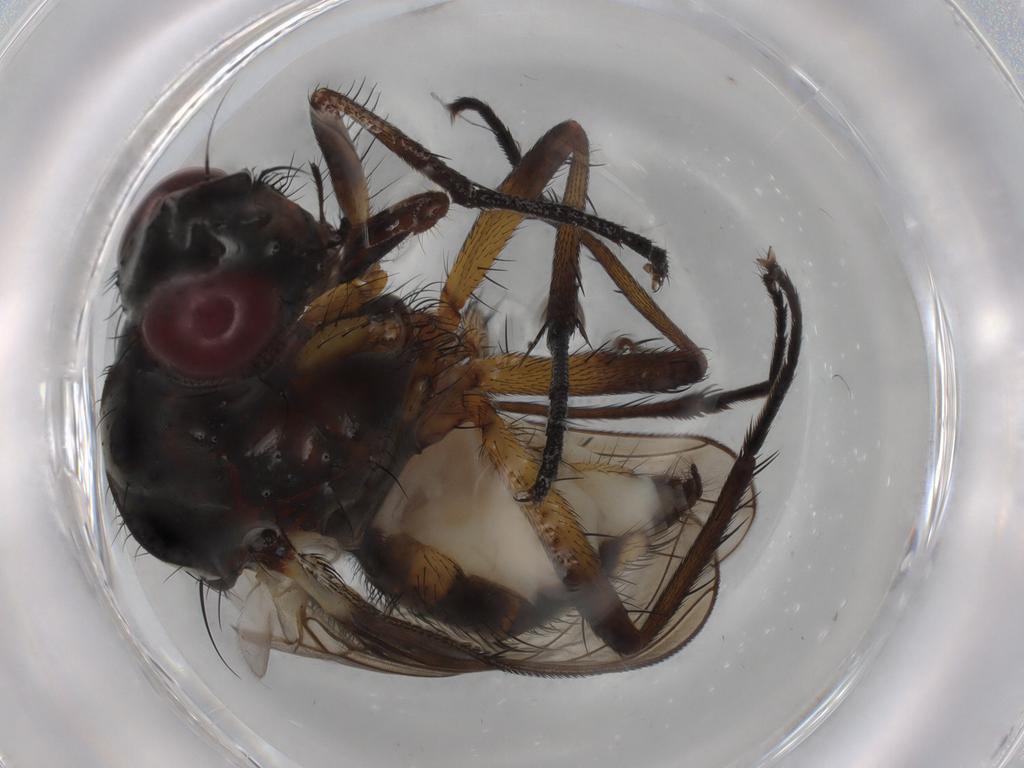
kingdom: Animalia
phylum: Arthropoda
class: Insecta
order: Diptera
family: Anthomyiidae
